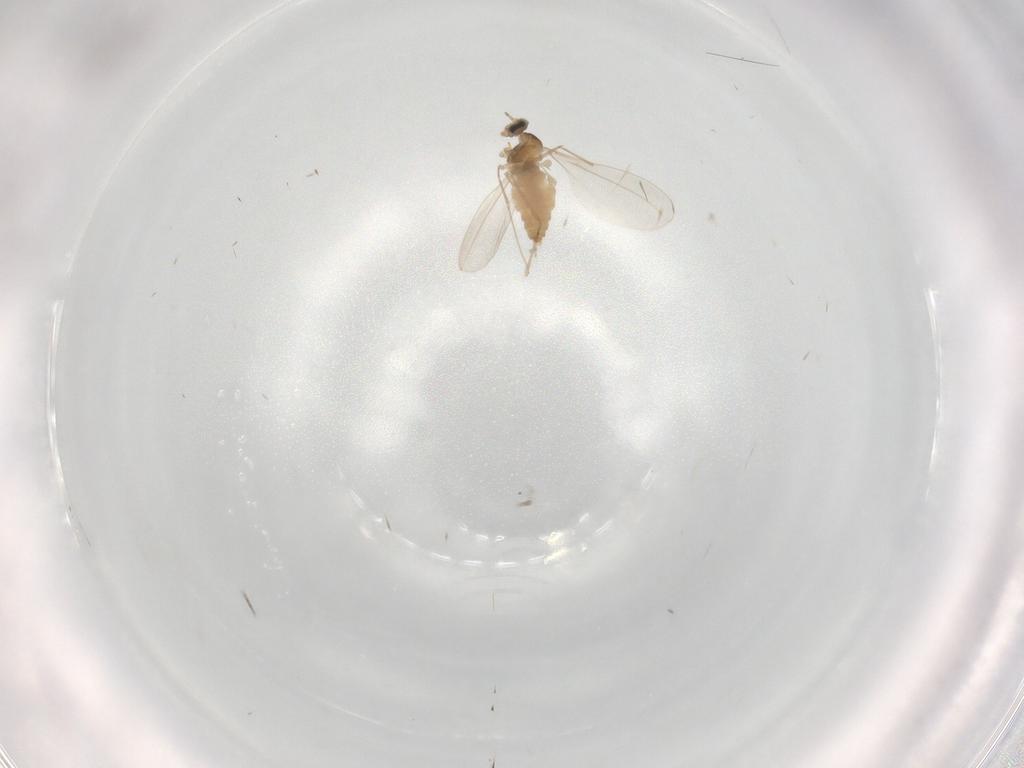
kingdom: Animalia
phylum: Arthropoda
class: Insecta
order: Diptera
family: Cecidomyiidae
